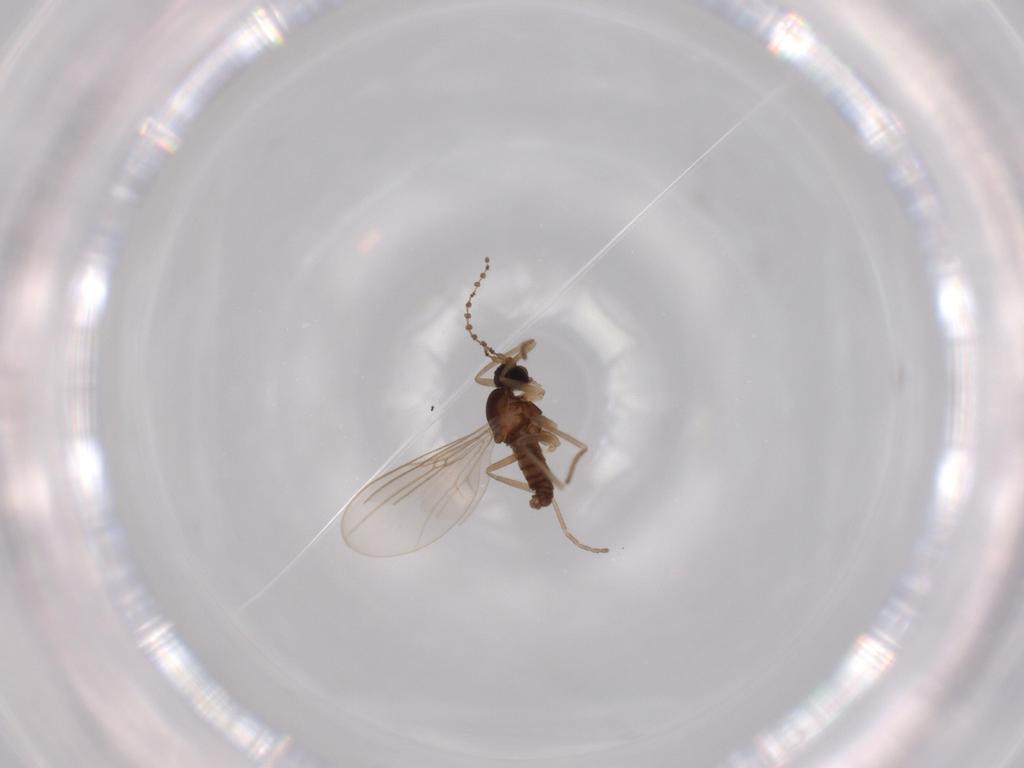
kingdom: Animalia
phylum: Arthropoda
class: Insecta
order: Diptera
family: Cecidomyiidae
